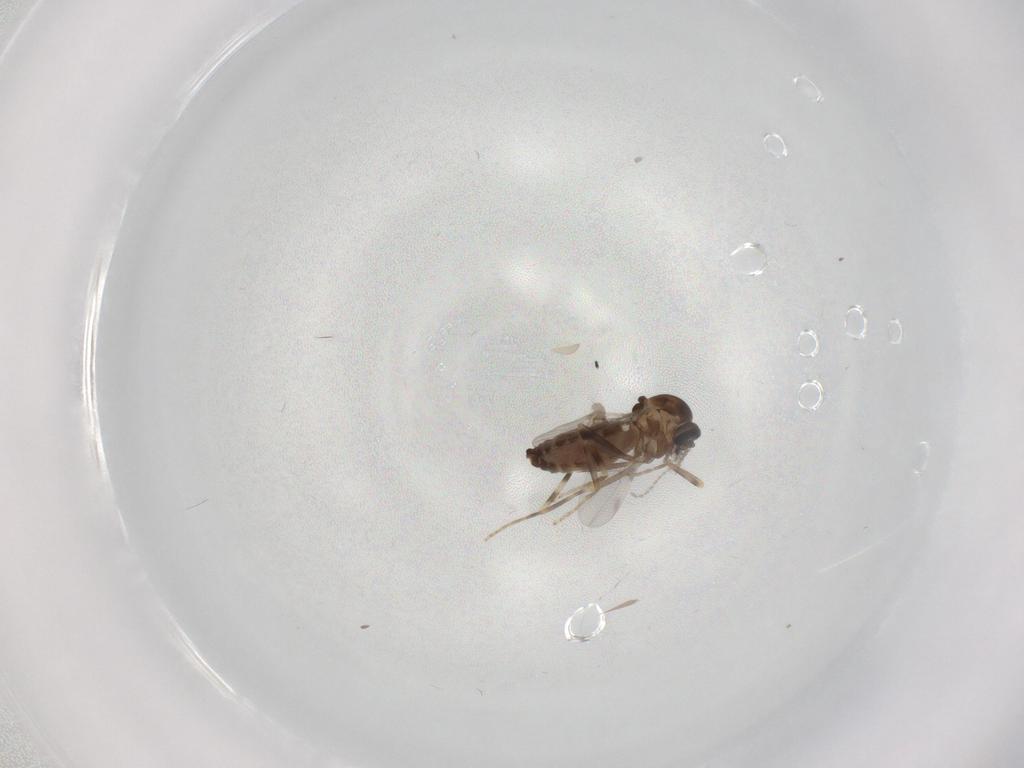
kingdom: Animalia
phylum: Arthropoda
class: Insecta
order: Diptera
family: Ceratopogonidae
